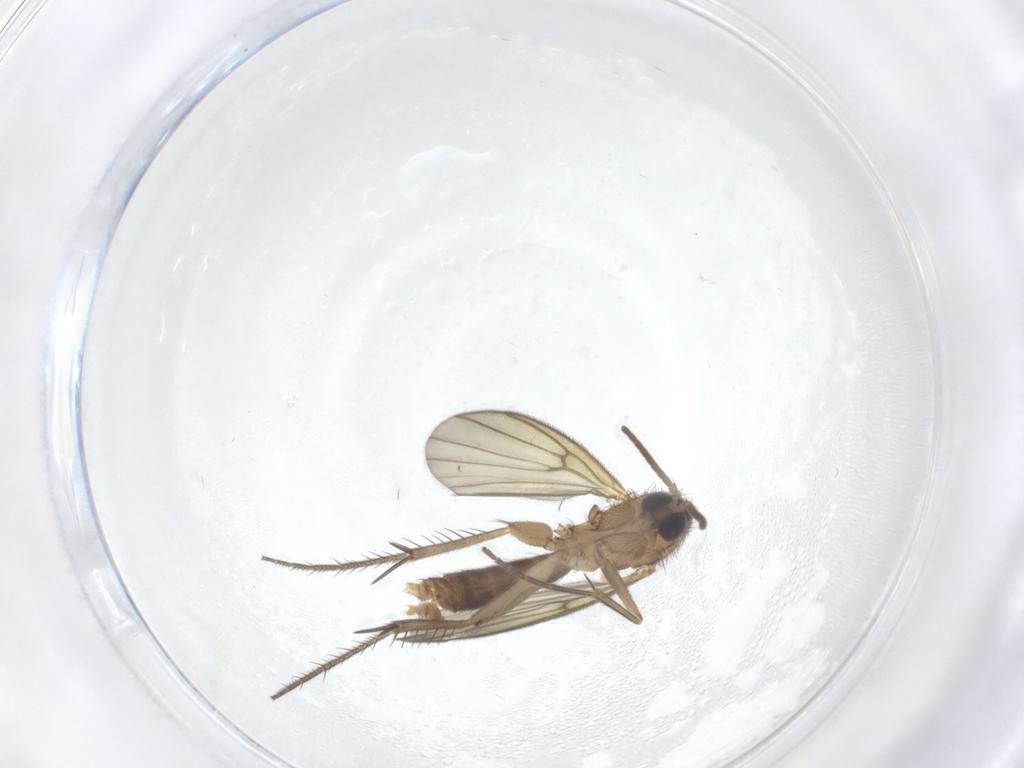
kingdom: Animalia
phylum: Arthropoda
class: Insecta
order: Diptera
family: Mycetophilidae
